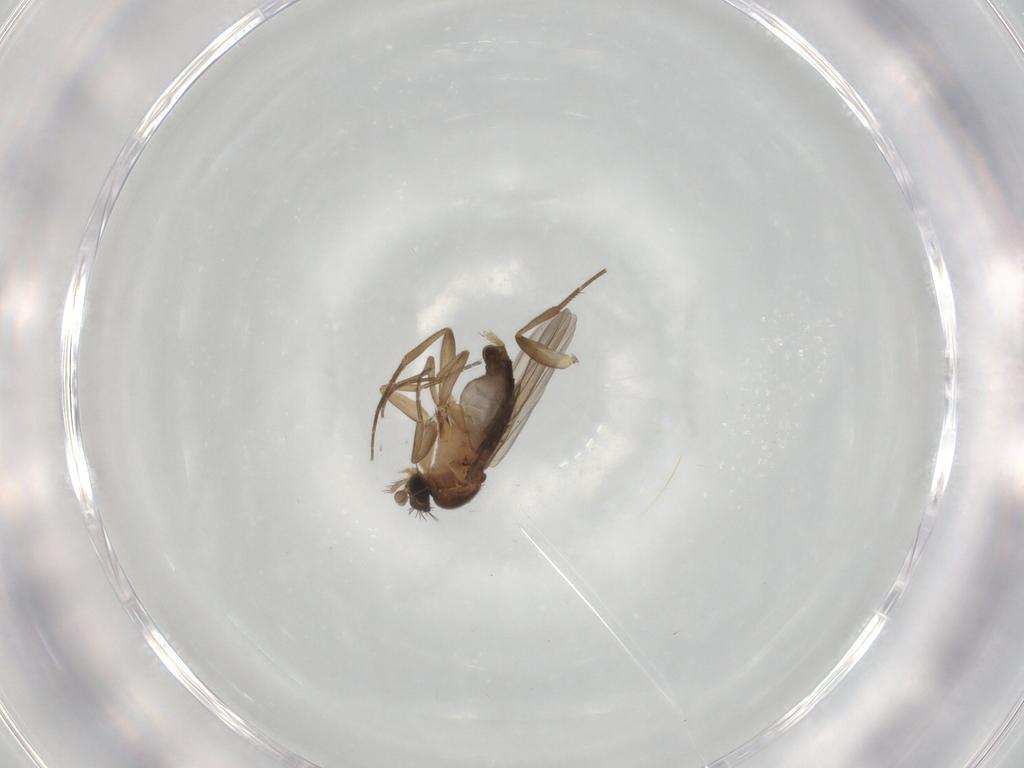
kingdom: Animalia
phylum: Arthropoda
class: Insecta
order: Diptera
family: Phoridae
